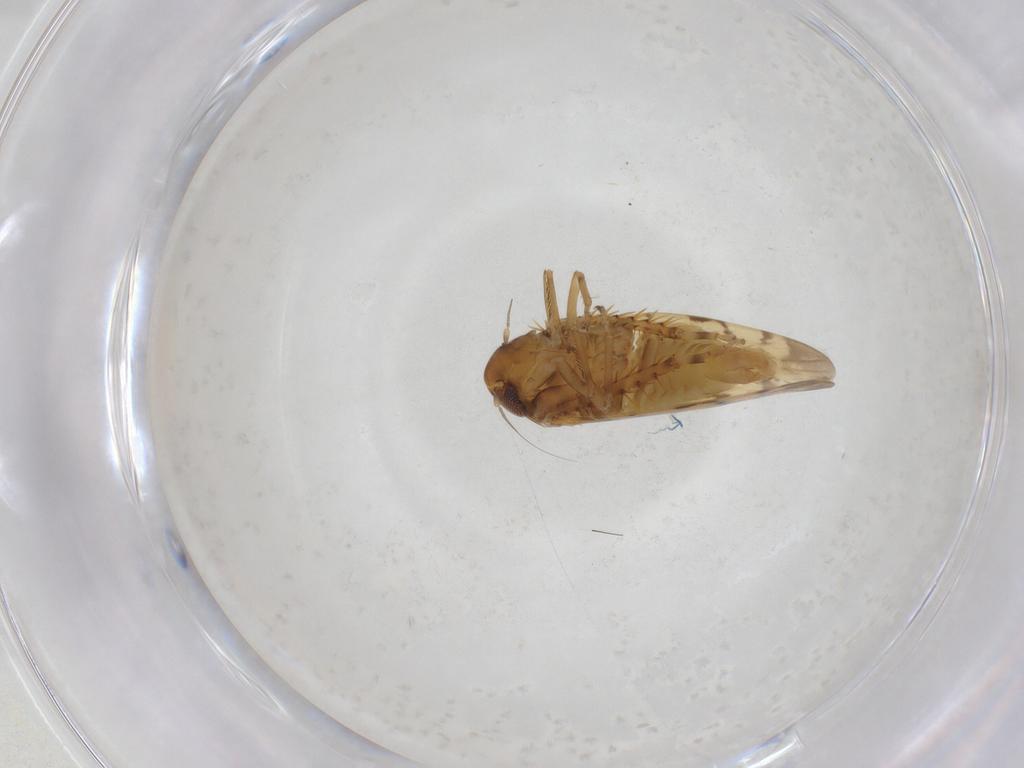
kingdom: Animalia
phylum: Arthropoda
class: Insecta
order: Hemiptera
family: Cicadellidae
